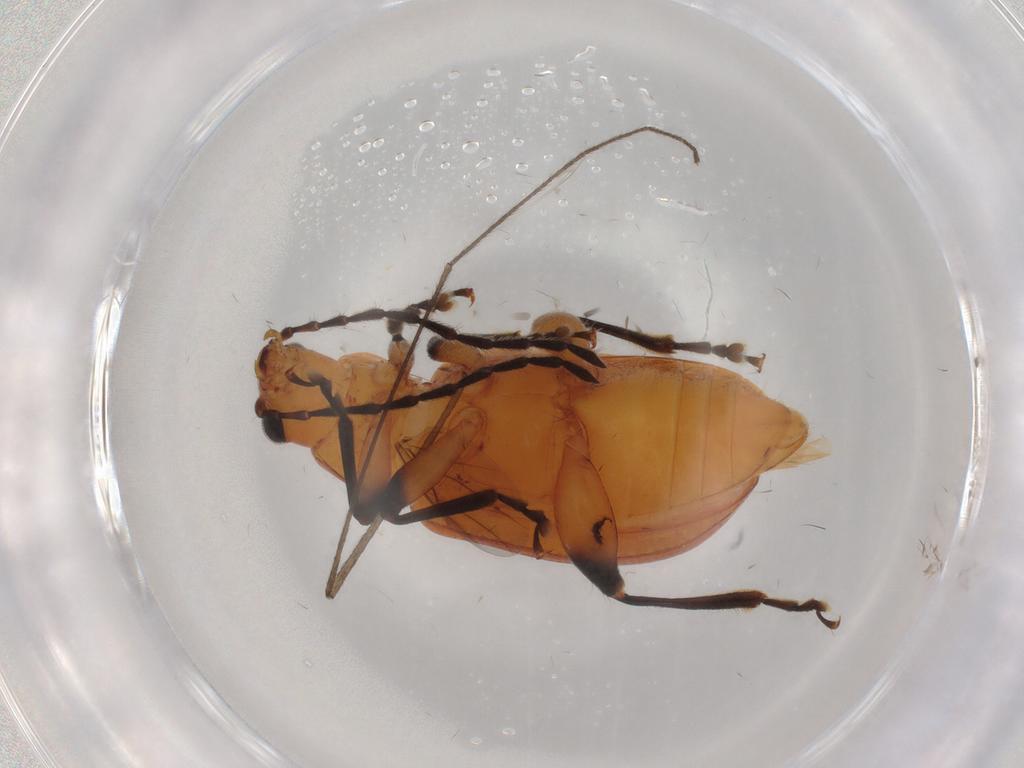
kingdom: Animalia
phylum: Arthropoda
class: Insecta
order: Coleoptera
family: Chrysomelidae
